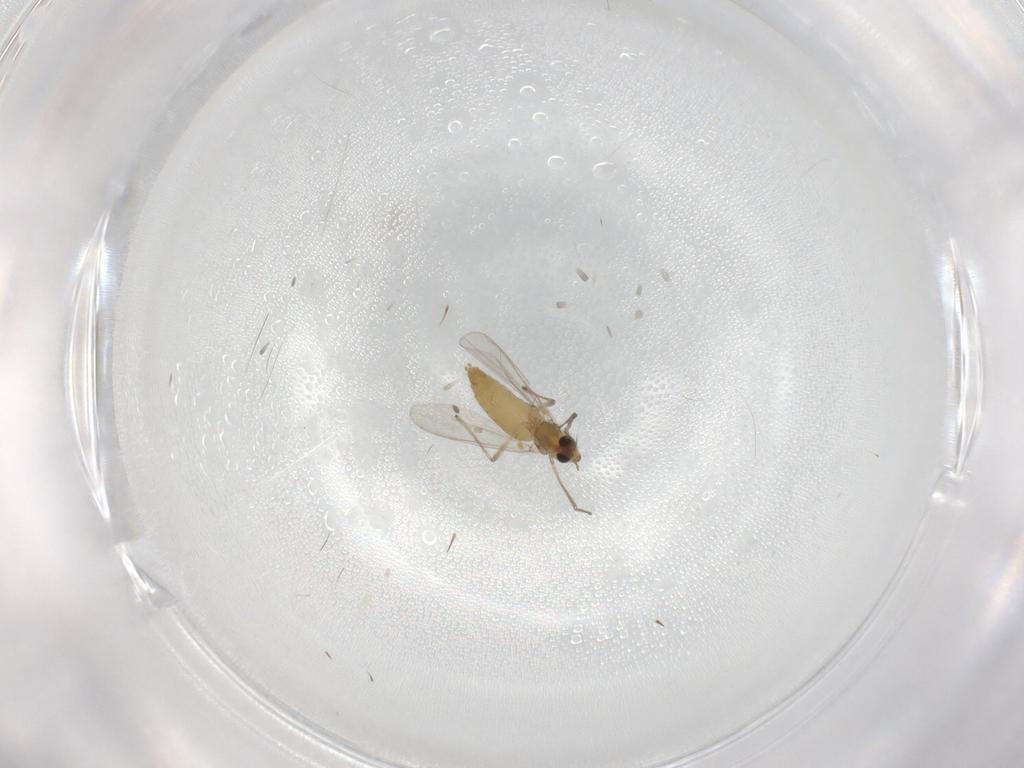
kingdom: Animalia
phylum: Arthropoda
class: Insecta
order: Diptera
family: Chironomidae
